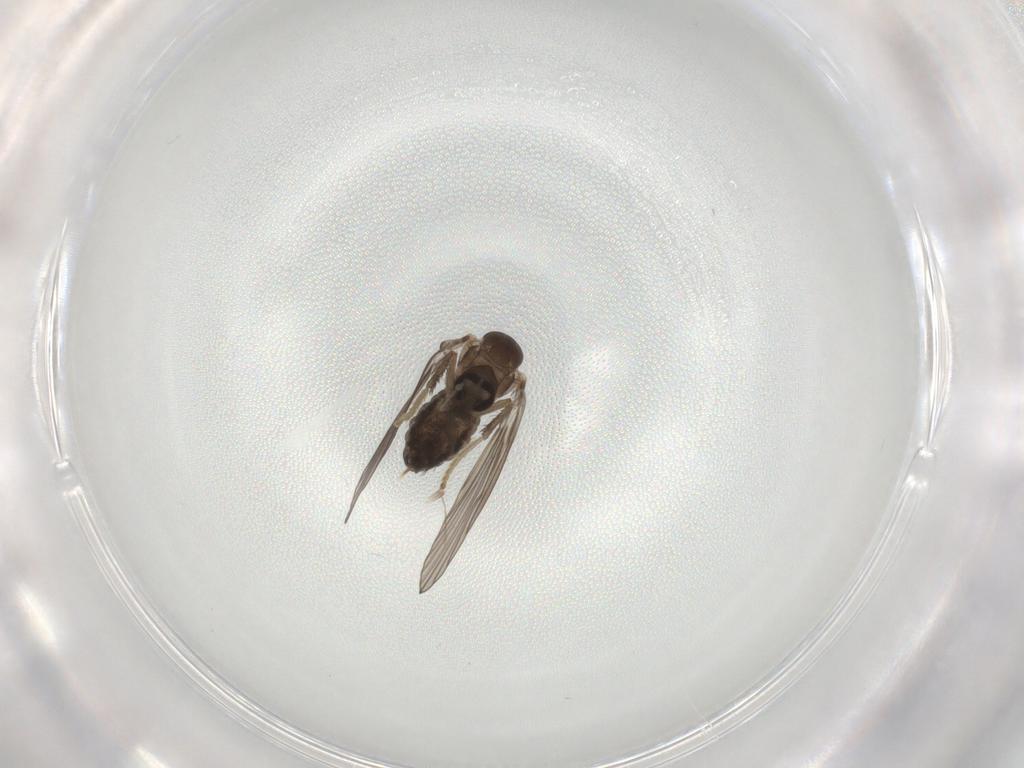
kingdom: Animalia
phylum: Arthropoda
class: Insecta
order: Diptera
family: Psychodidae
